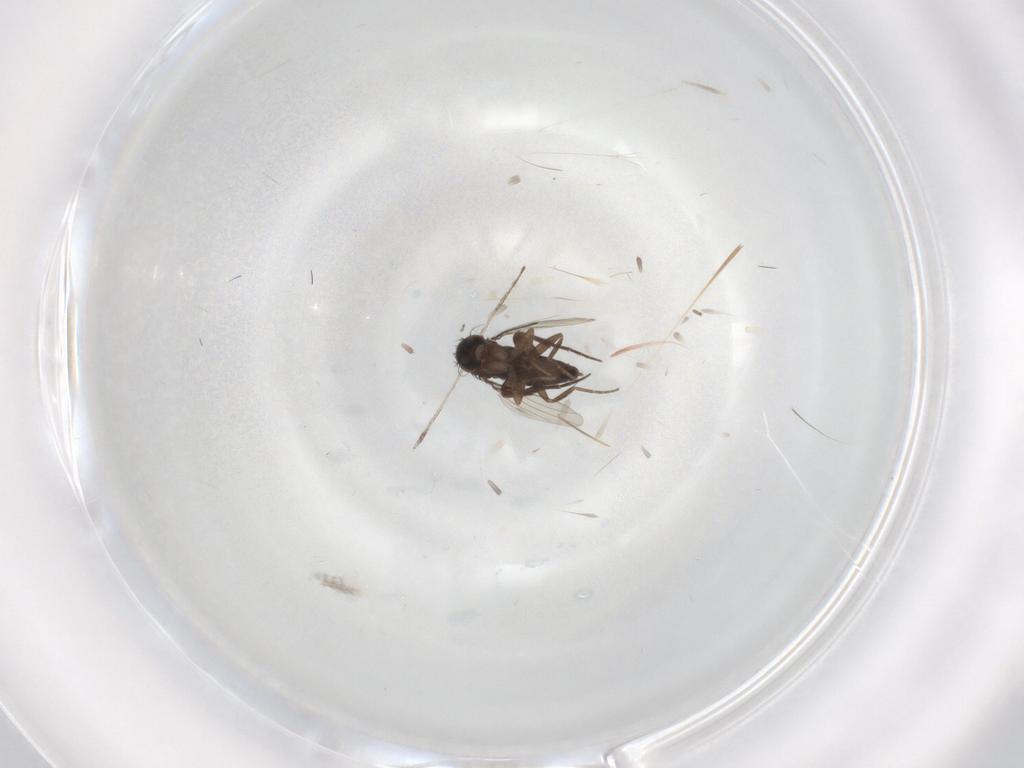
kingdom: Animalia
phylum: Arthropoda
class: Insecta
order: Diptera
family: Phoridae
